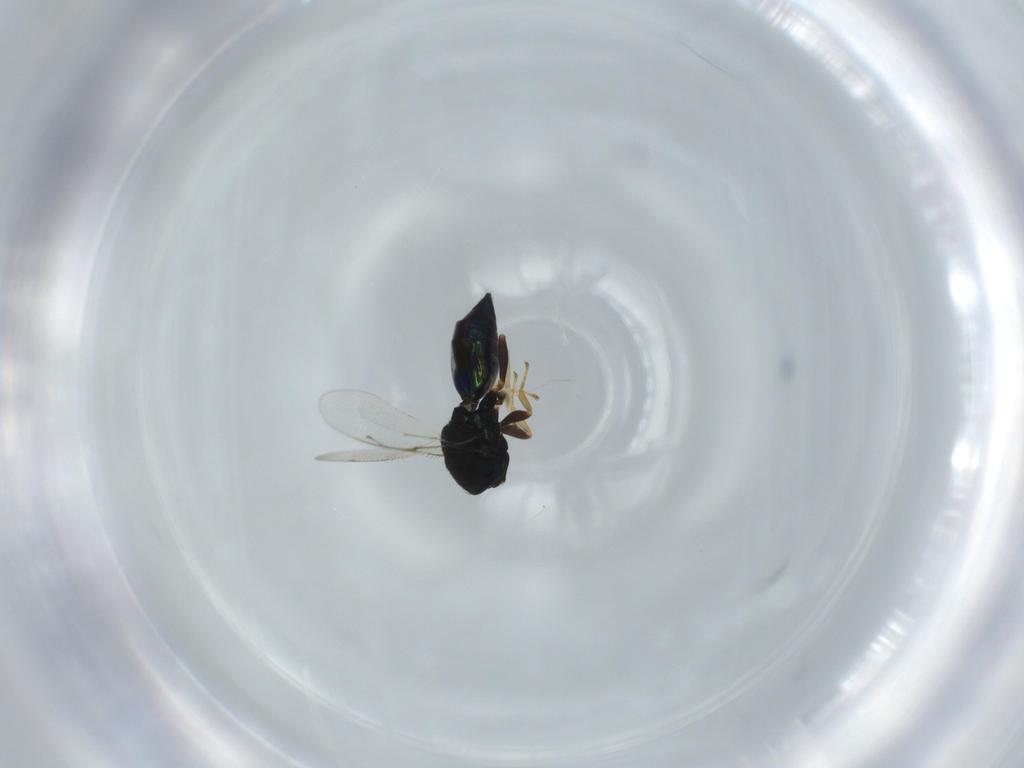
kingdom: Animalia
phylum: Arthropoda
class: Insecta
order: Hymenoptera
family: Pteromalidae
